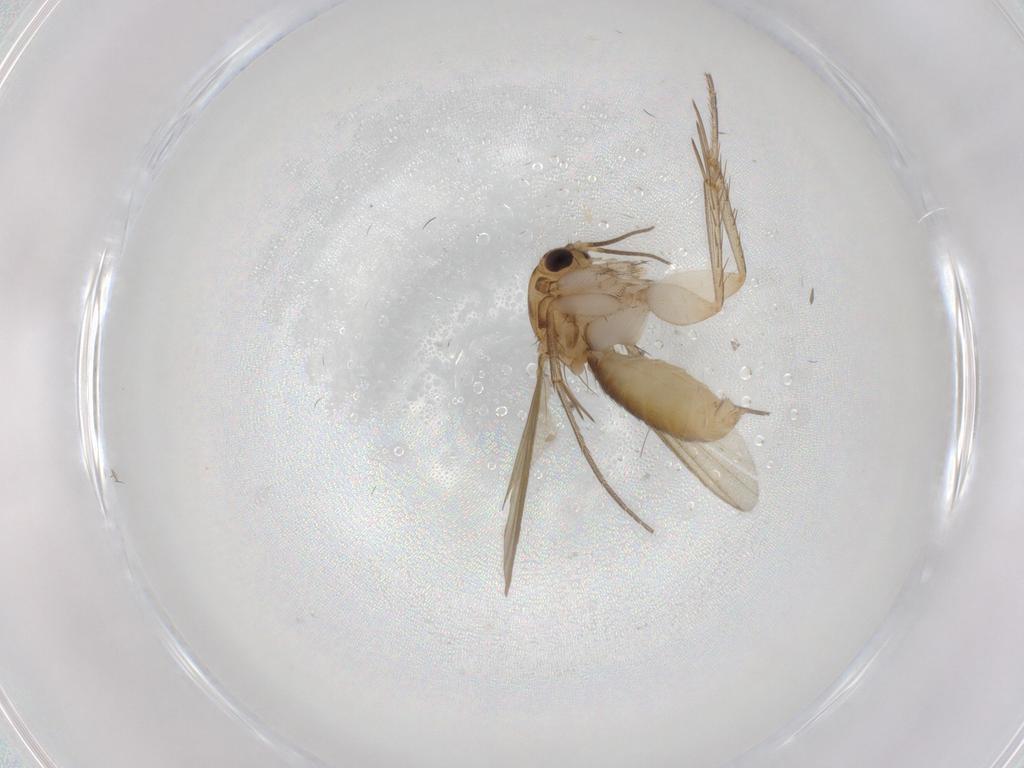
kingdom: Animalia
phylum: Arthropoda
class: Insecta
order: Diptera
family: Mycetophilidae
